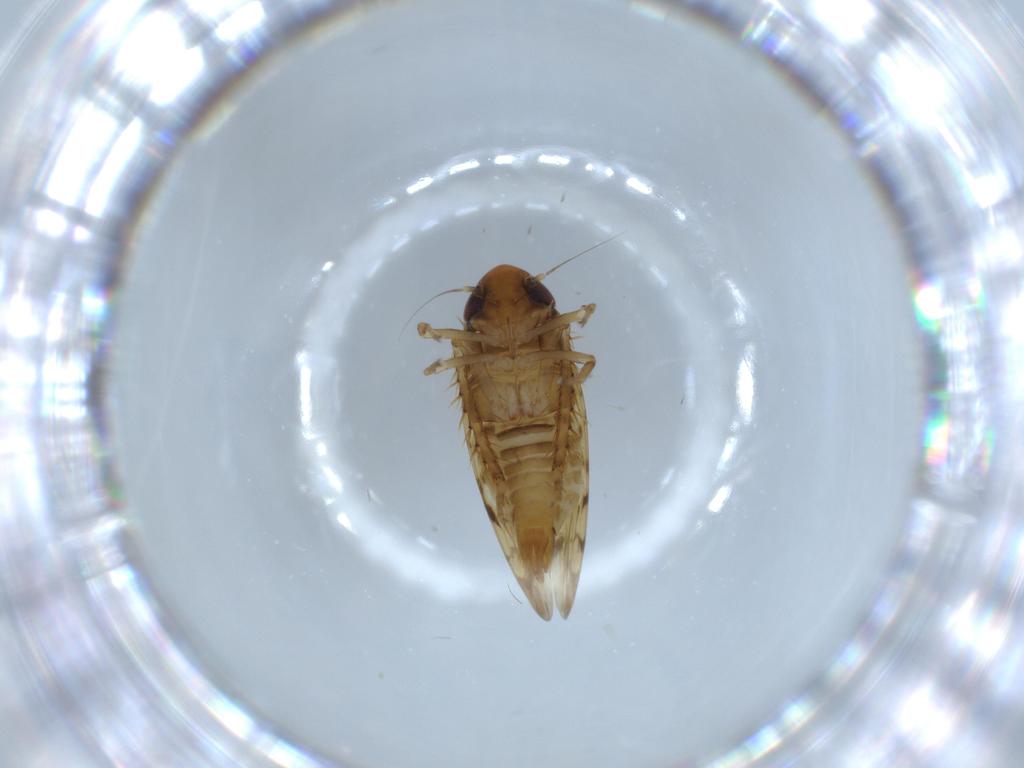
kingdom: Animalia
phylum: Arthropoda
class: Insecta
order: Hemiptera
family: Cicadellidae
